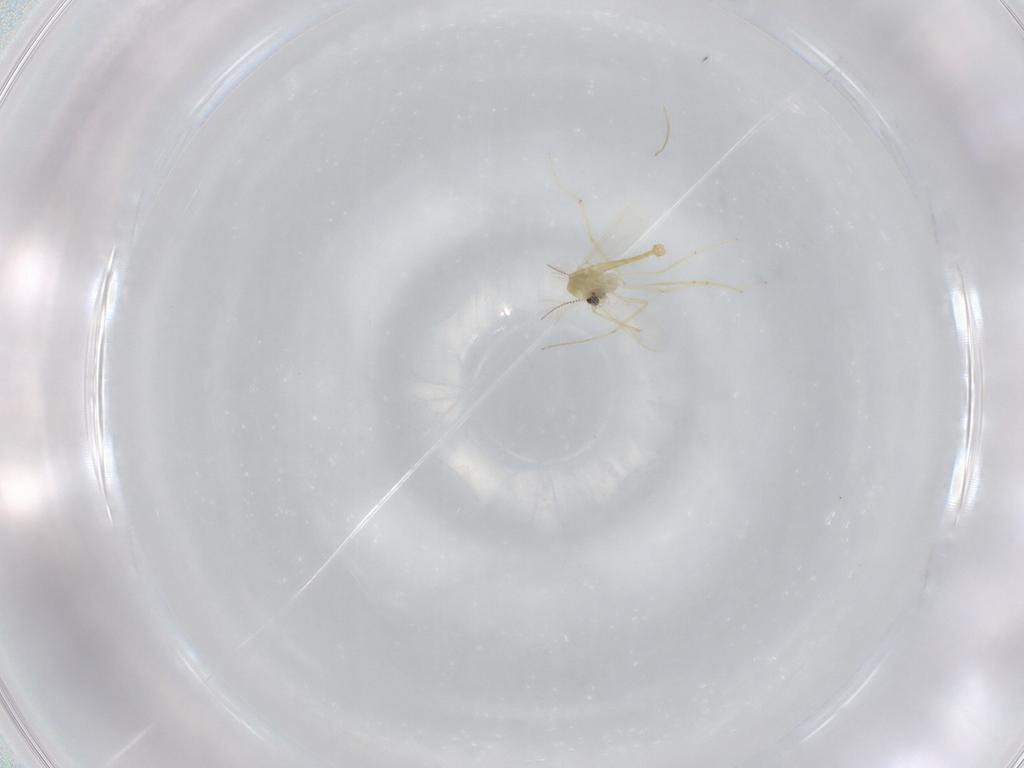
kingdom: Animalia
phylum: Arthropoda
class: Insecta
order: Diptera
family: Chironomidae
